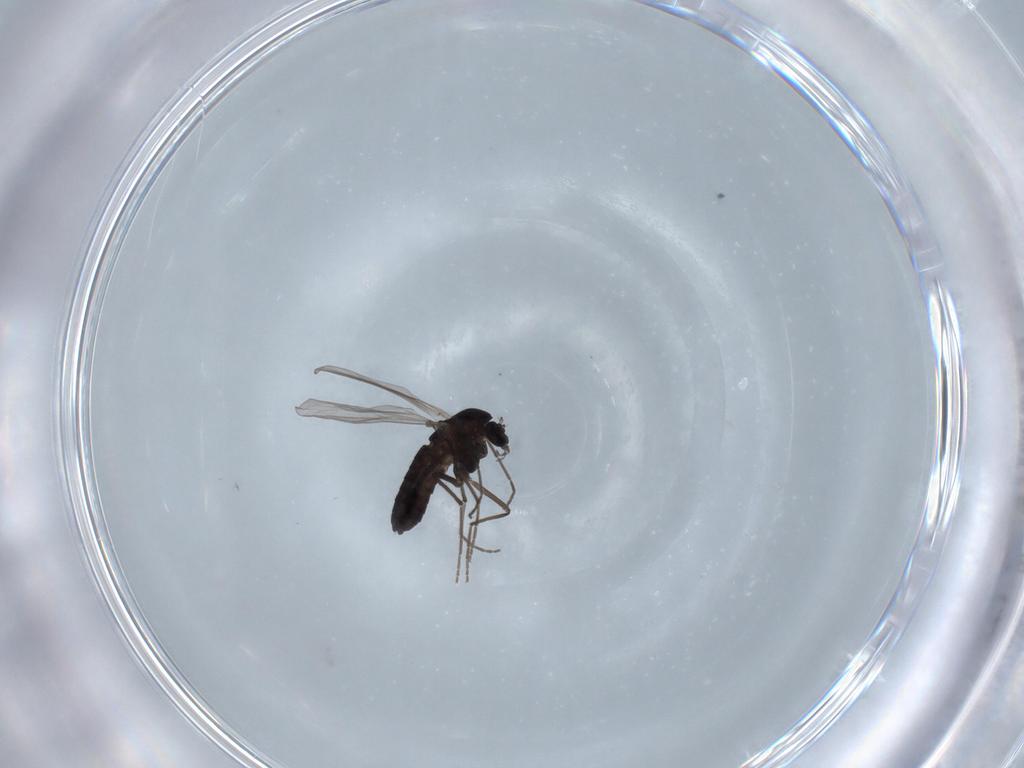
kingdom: Animalia
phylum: Arthropoda
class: Insecta
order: Diptera
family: Chironomidae
